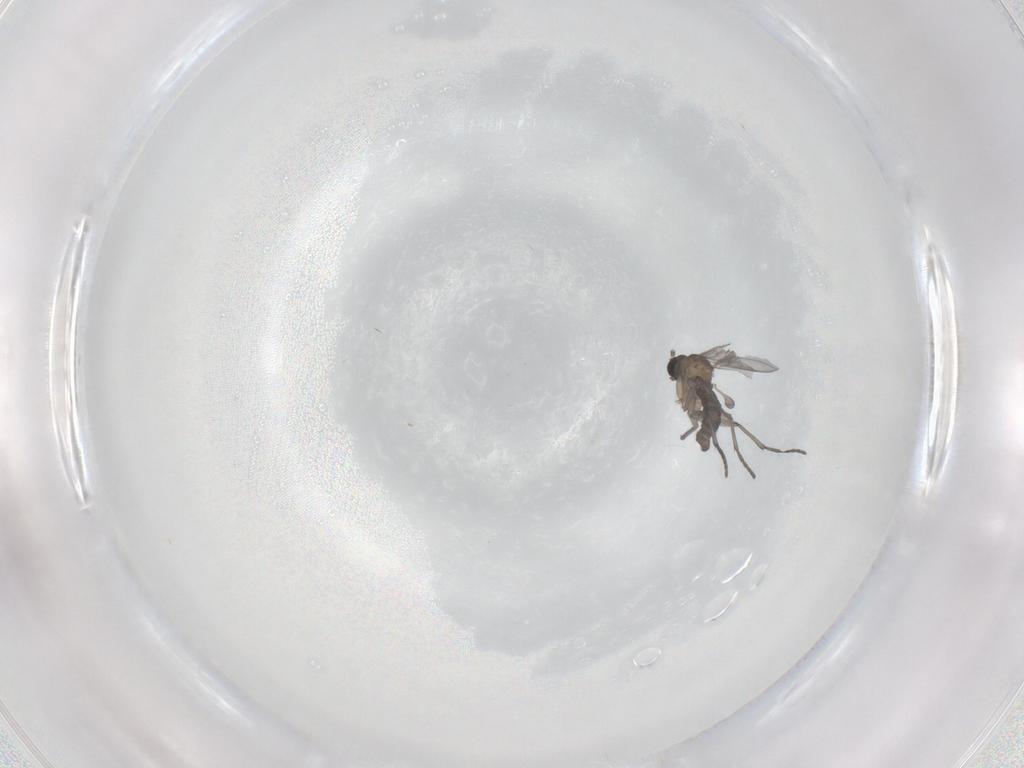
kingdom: Animalia
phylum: Arthropoda
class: Insecta
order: Diptera
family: Sciaridae
